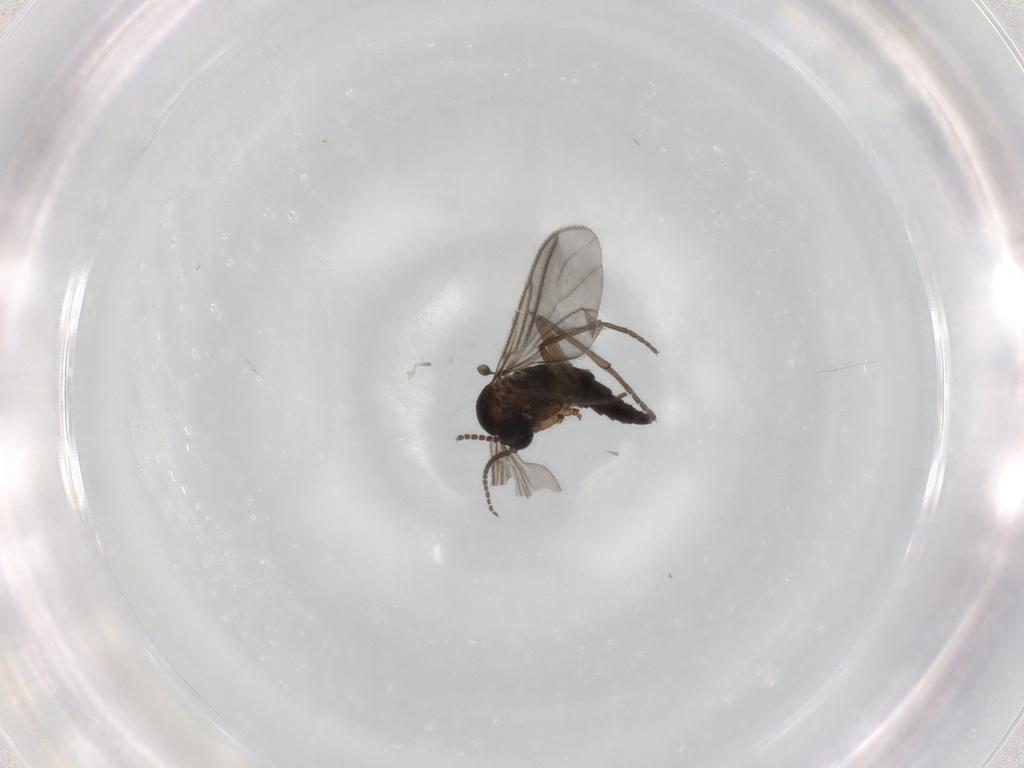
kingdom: Animalia
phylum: Arthropoda
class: Insecta
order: Diptera
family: Sciaridae
